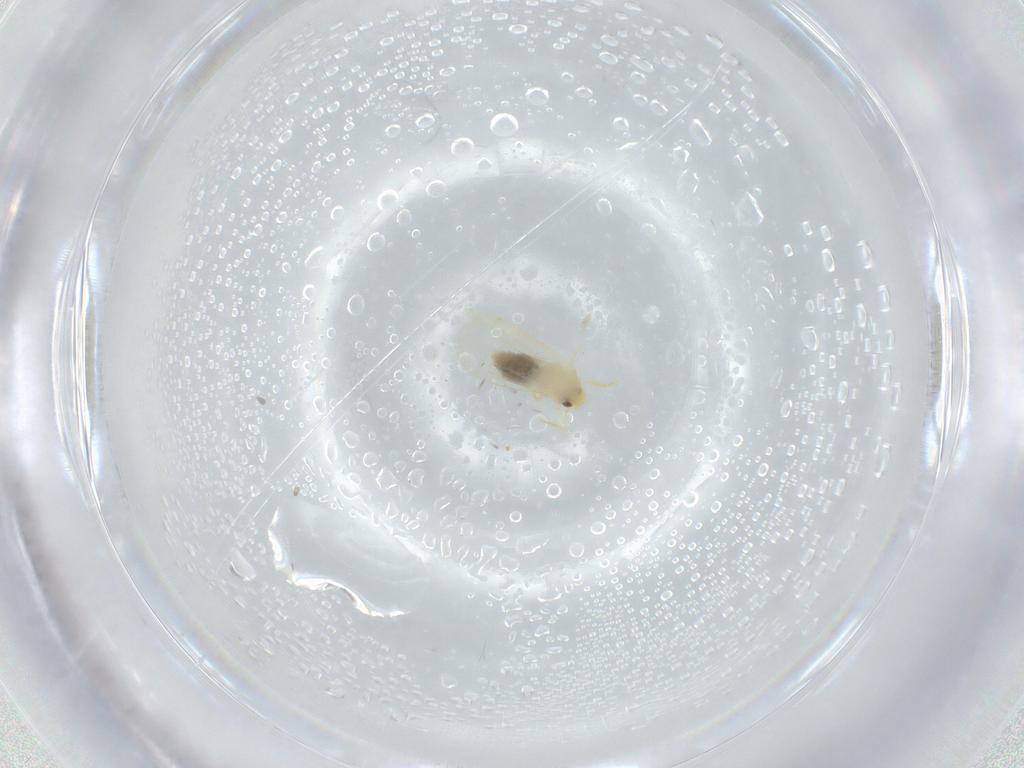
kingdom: Animalia
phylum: Arthropoda
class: Insecta
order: Hemiptera
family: Aleyrodidae
